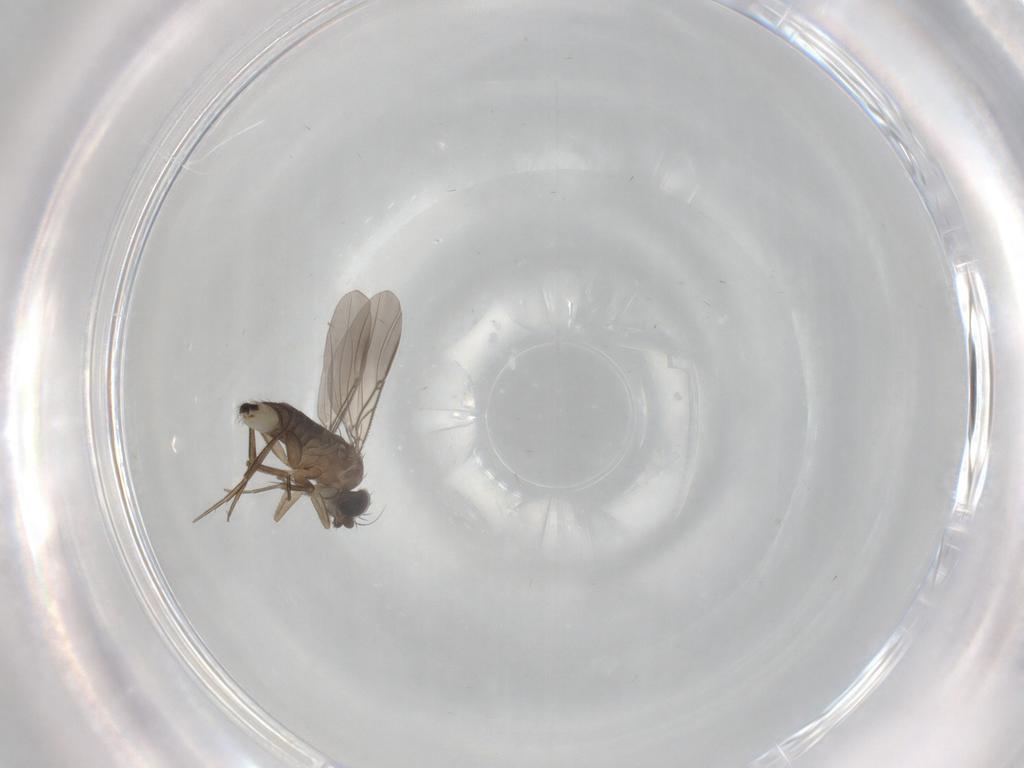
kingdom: Animalia
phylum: Arthropoda
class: Insecta
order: Diptera
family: Phoridae
